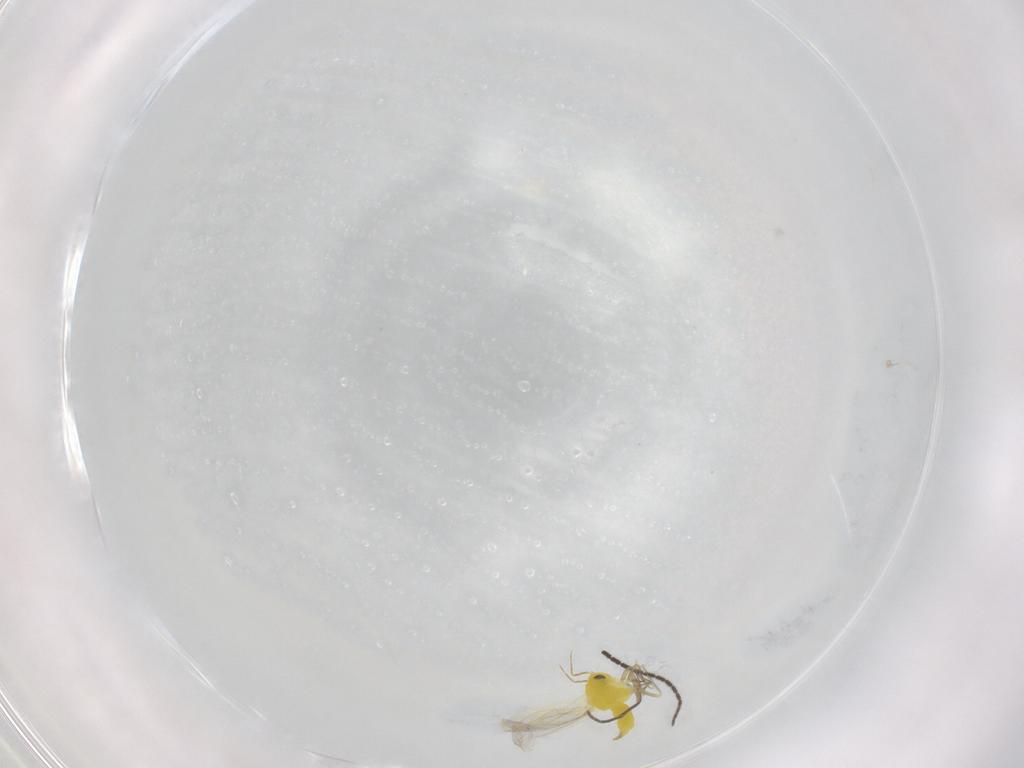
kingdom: Animalia
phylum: Arthropoda
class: Insecta
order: Hemiptera
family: Aleyrodidae
